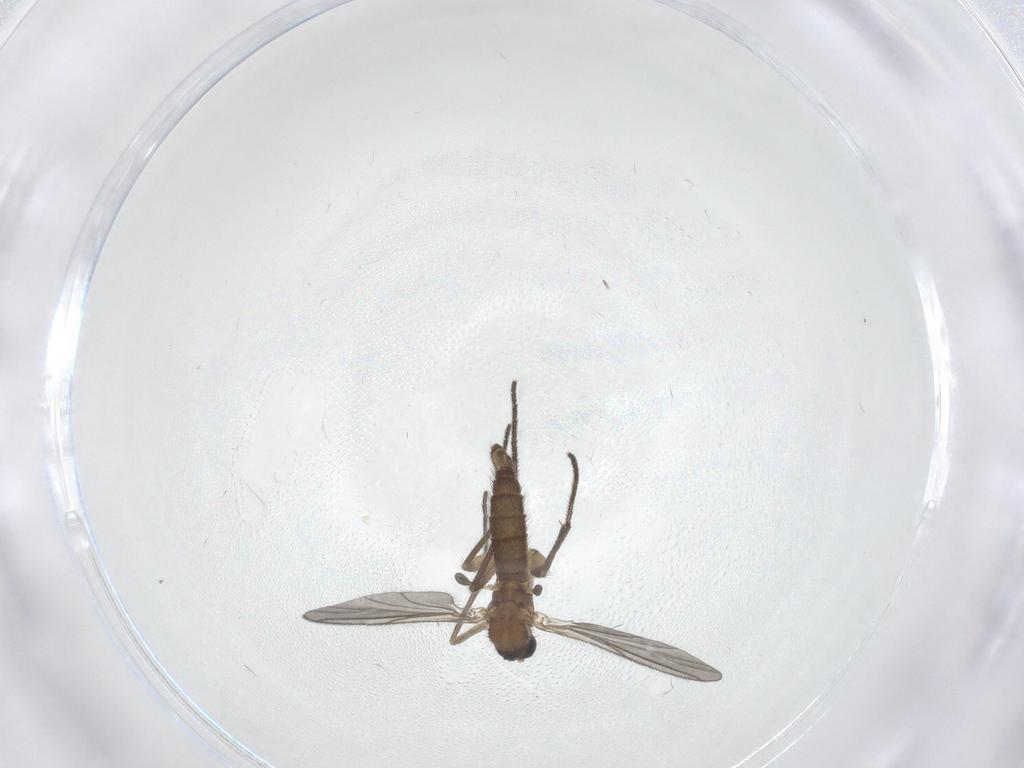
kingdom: Animalia
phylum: Arthropoda
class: Insecta
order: Diptera
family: Sciaridae
